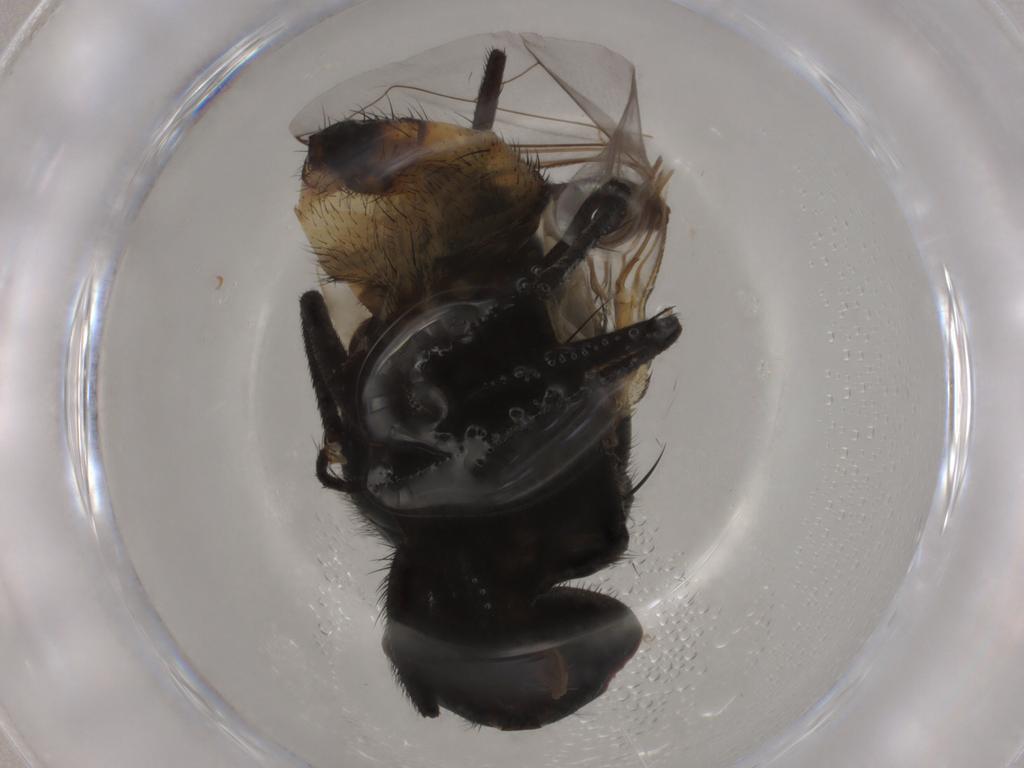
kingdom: Animalia
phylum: Arthropoda
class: Insecta
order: Diptera
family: Muscidae
